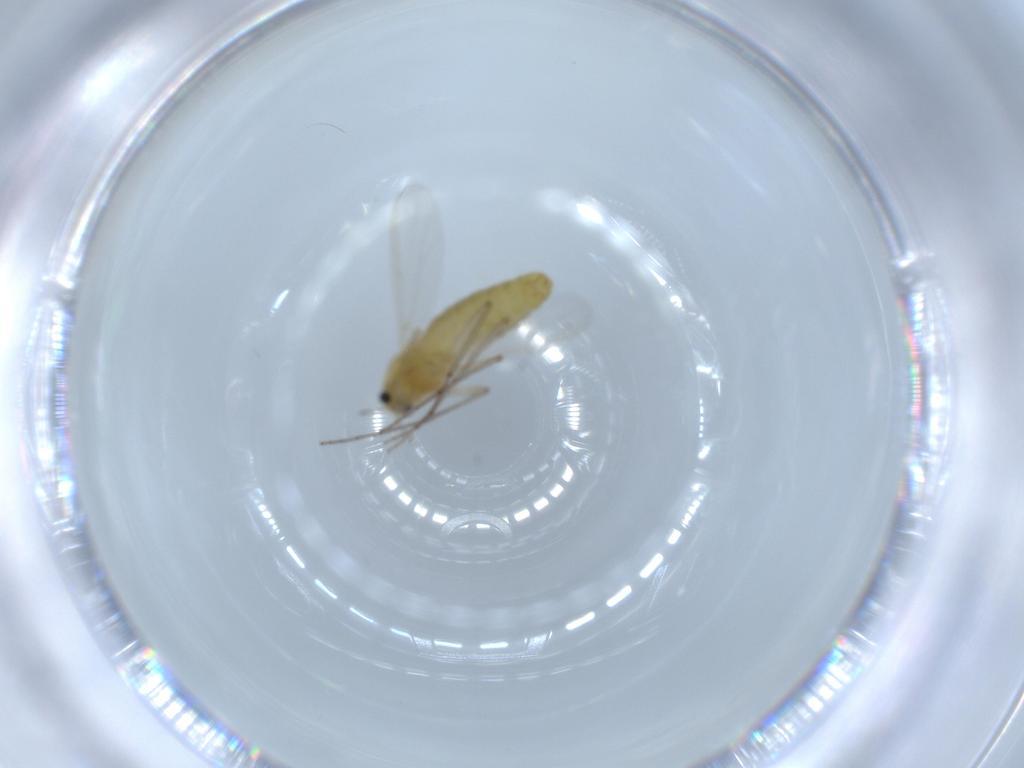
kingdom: Animalia
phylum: Arthropoda
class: Insecta
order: Diptera
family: Chironomidae
